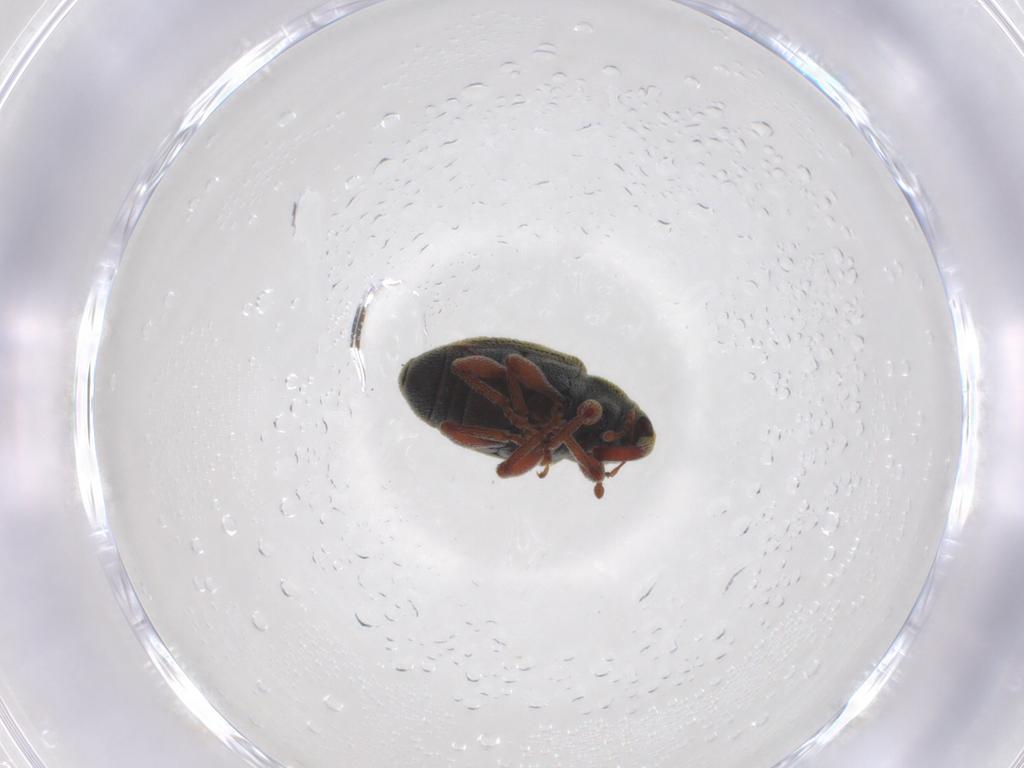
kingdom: Animalia
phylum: Arthropoda
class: Insecta
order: Coleoptera
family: Curculionidae
